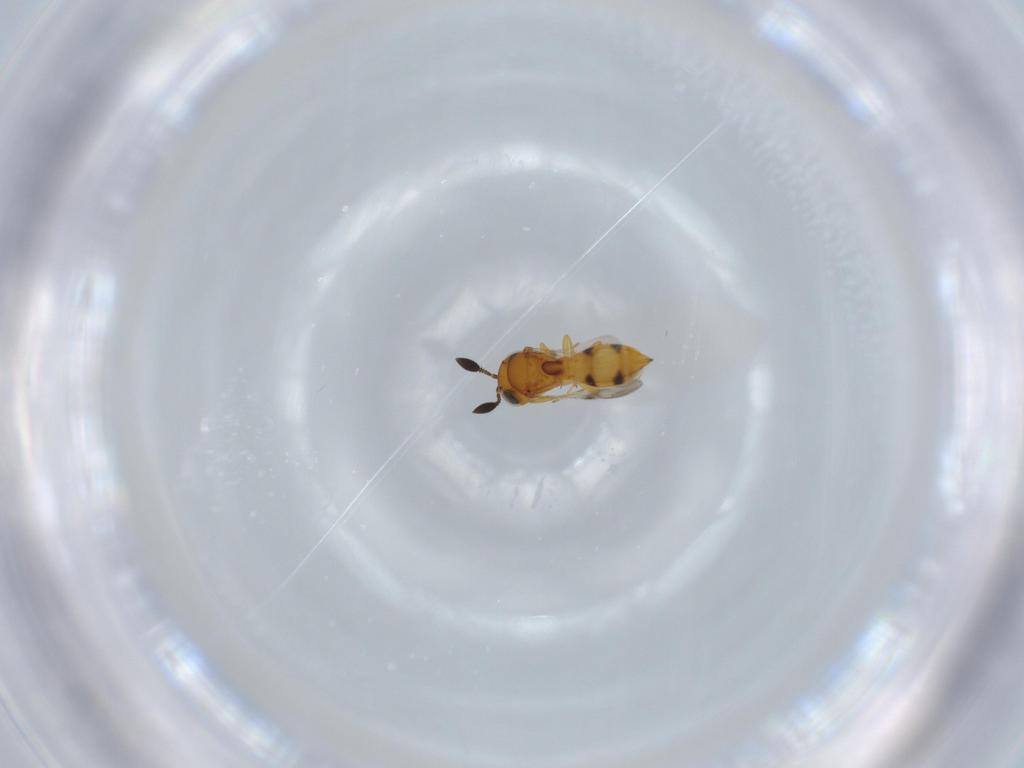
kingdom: Animalia
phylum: Arthropoda
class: Insecta
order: Hymenoptera
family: Scelionidae
